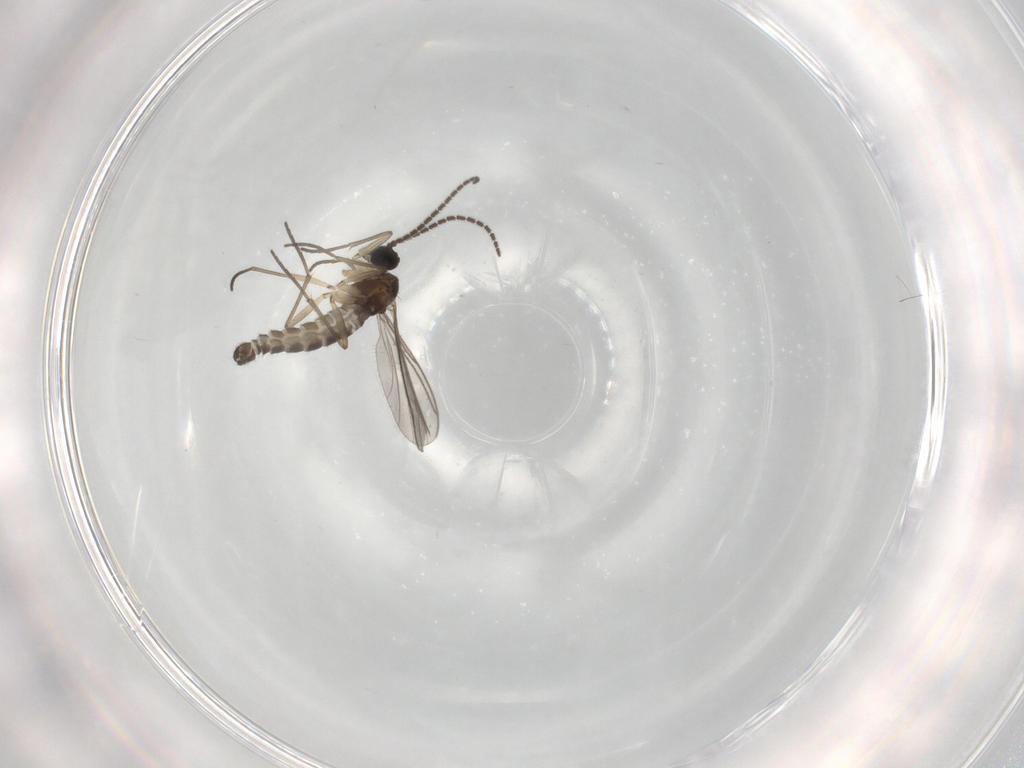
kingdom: Animalia
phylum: Arthropoda
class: Insecta
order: Diptera
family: Sciaridae
